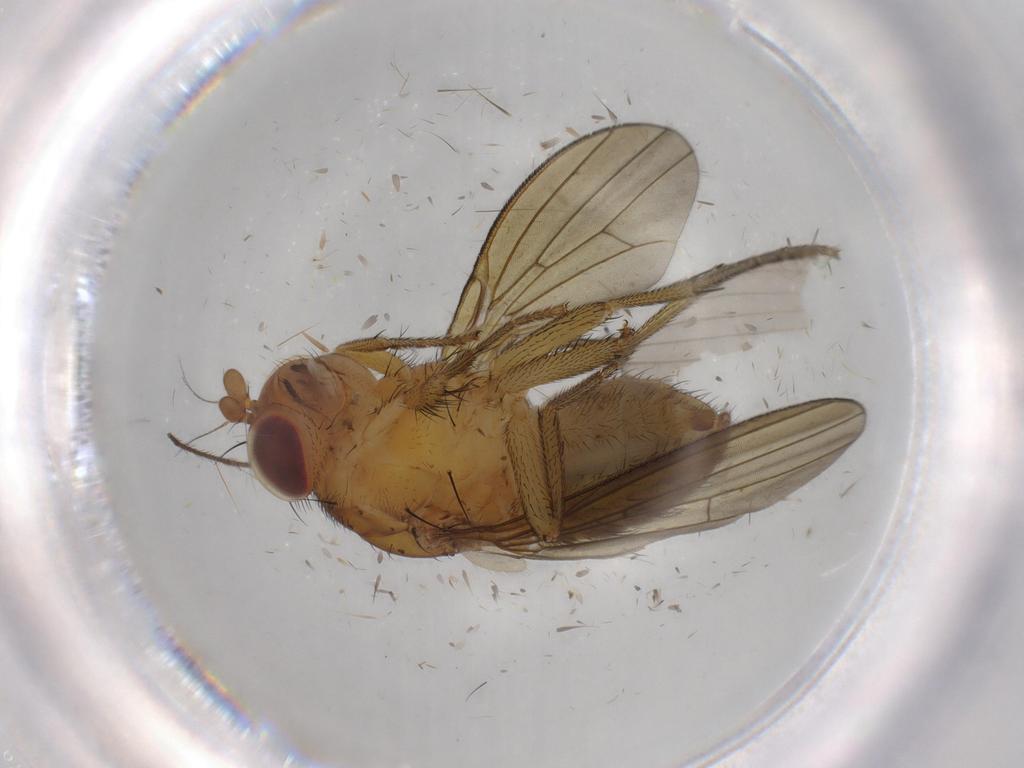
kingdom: Animalia
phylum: Arthropoda
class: Insecta
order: Diptera
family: Limoniidae
